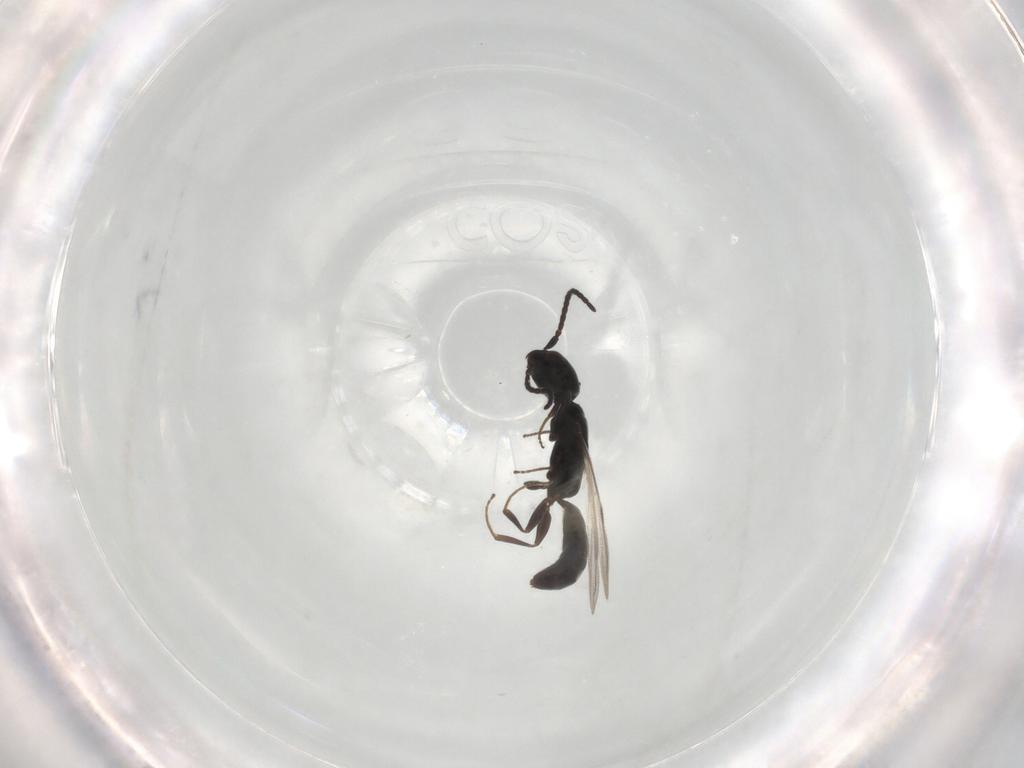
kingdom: Animalia
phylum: Arthropoda
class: Insecta
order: Hymenoptera
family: Bethylidae
